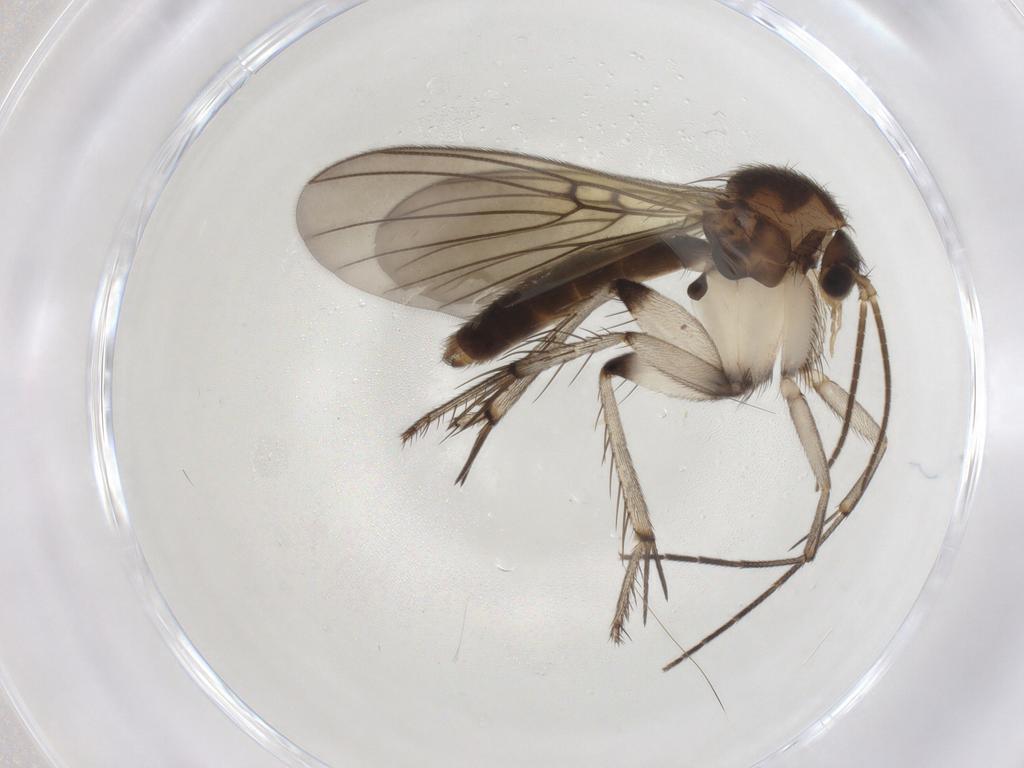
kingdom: Animalia
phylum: Arthropoda
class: Insecta
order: Diptera
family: Mycetophilidae
